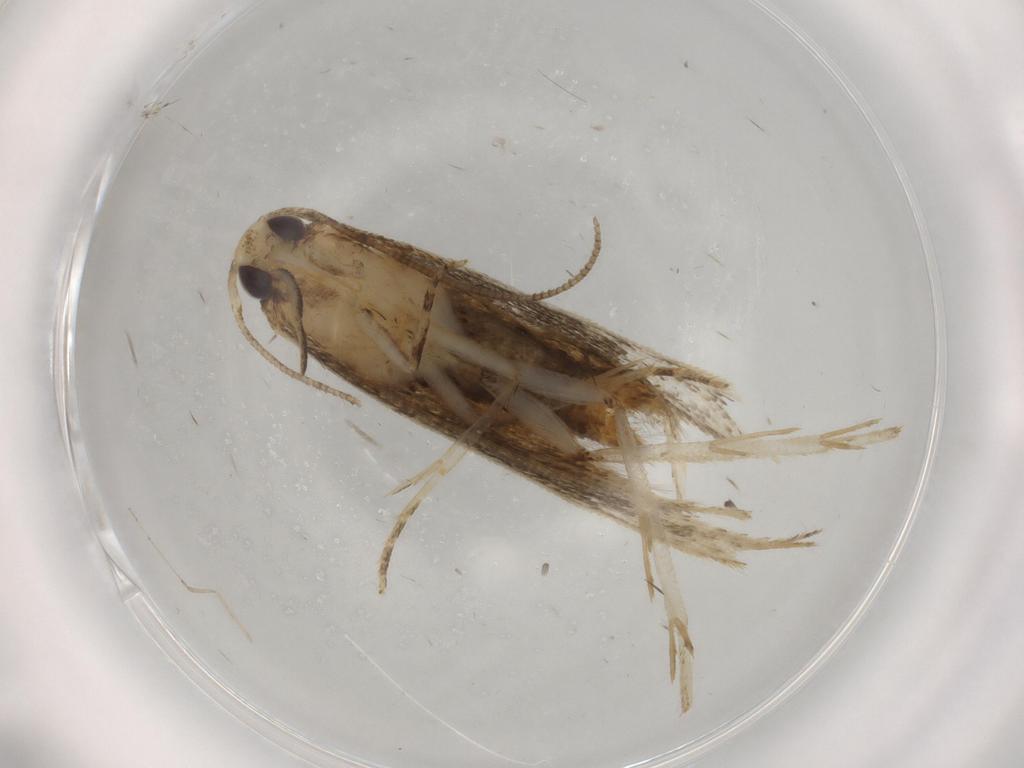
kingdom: Animalia
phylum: Arthropoda
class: Insecta
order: Lepidoptera
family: Cosmopterigidae
